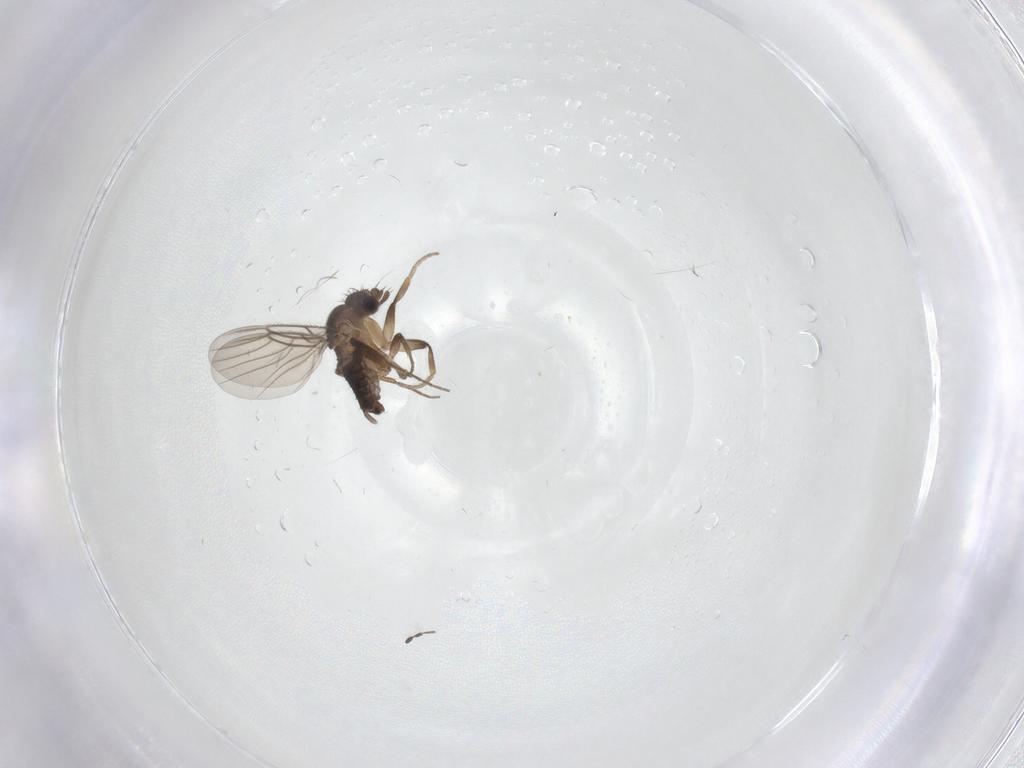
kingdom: Animalia
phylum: Arthropoda
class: Insecta
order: Diptera
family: Phoridae
